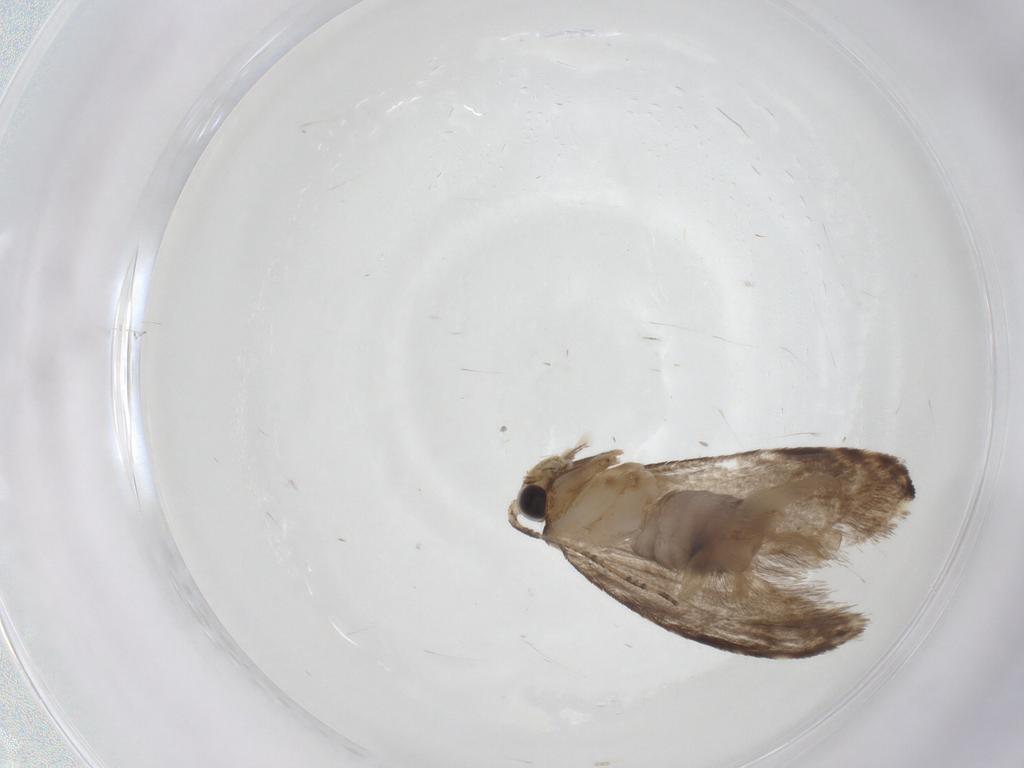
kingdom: Animalia
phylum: Arthropoda
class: Insecta
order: Lepidoptera
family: Tineidae
